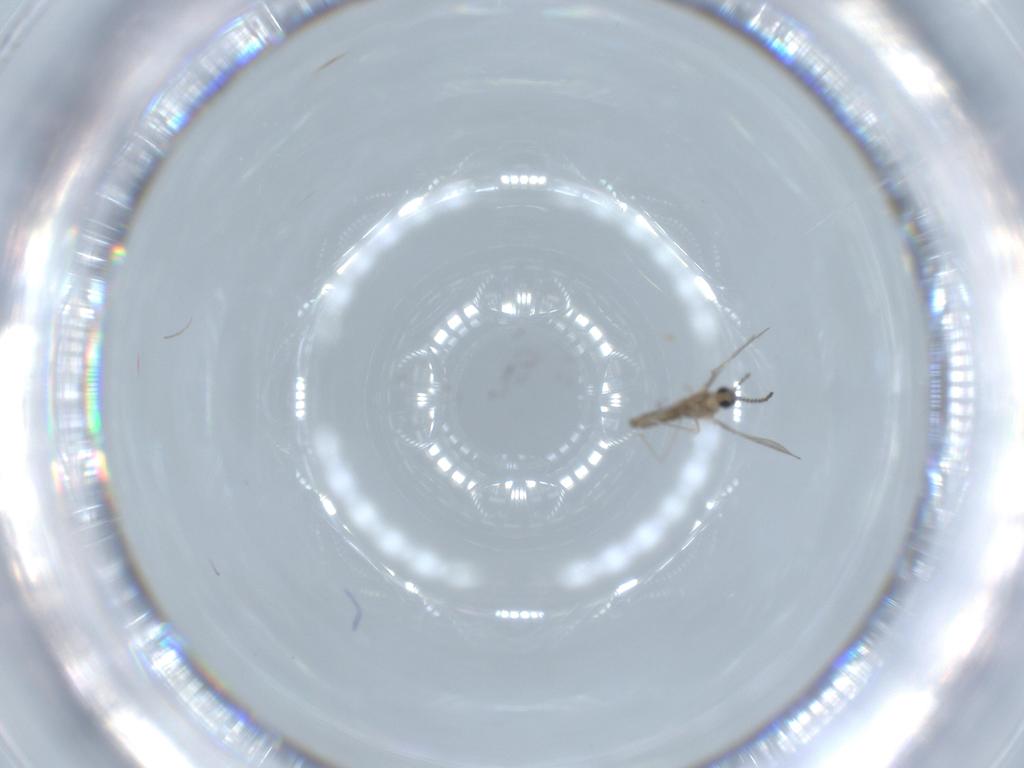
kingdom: Animalia
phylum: Arthropoda
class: Insecta
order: Diptera
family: Cecidomyiidae
